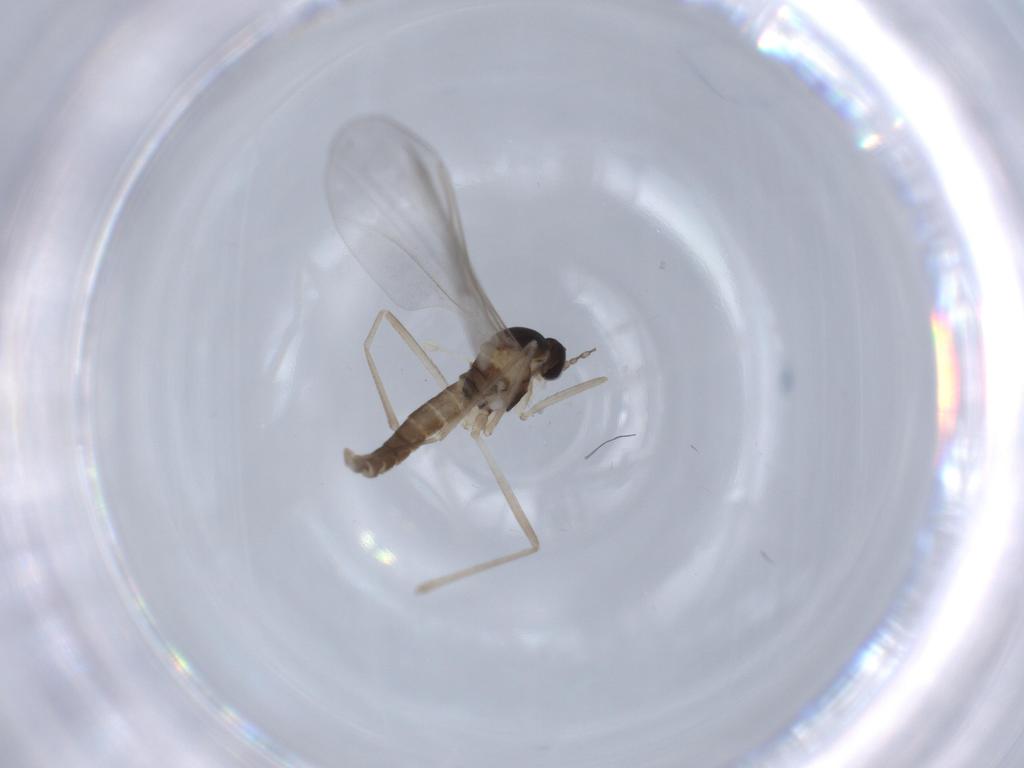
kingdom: Animalia
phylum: Arthropoda
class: Insecta
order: Diptera
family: Cecidomyiidae
